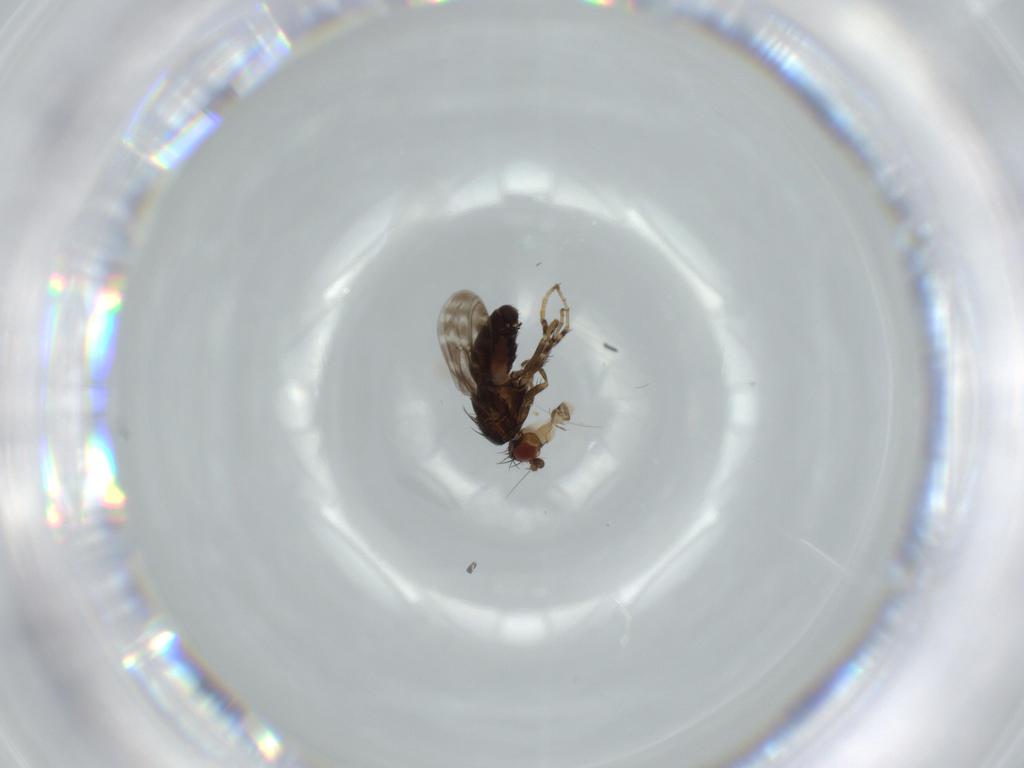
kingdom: Animalia
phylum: Arthropoda
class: Insecta
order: Diptera
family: Sphaeroceridae
